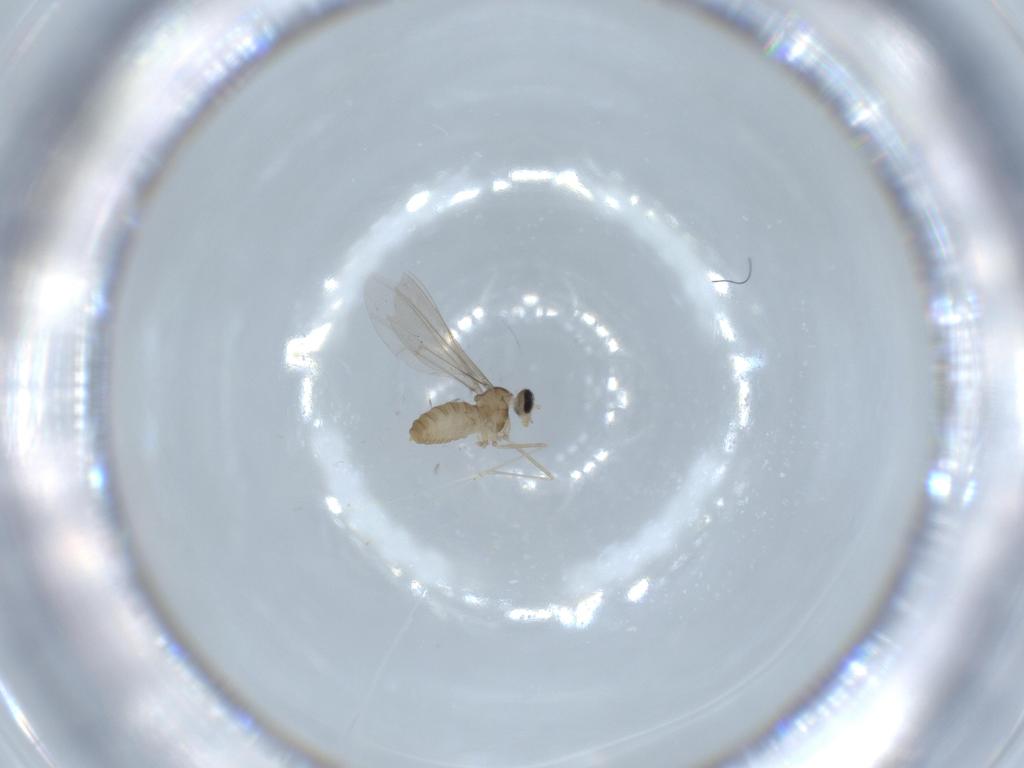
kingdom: Animalia
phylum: Arthropoda
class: Insecta
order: Diptera
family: Cecidomyiidae
